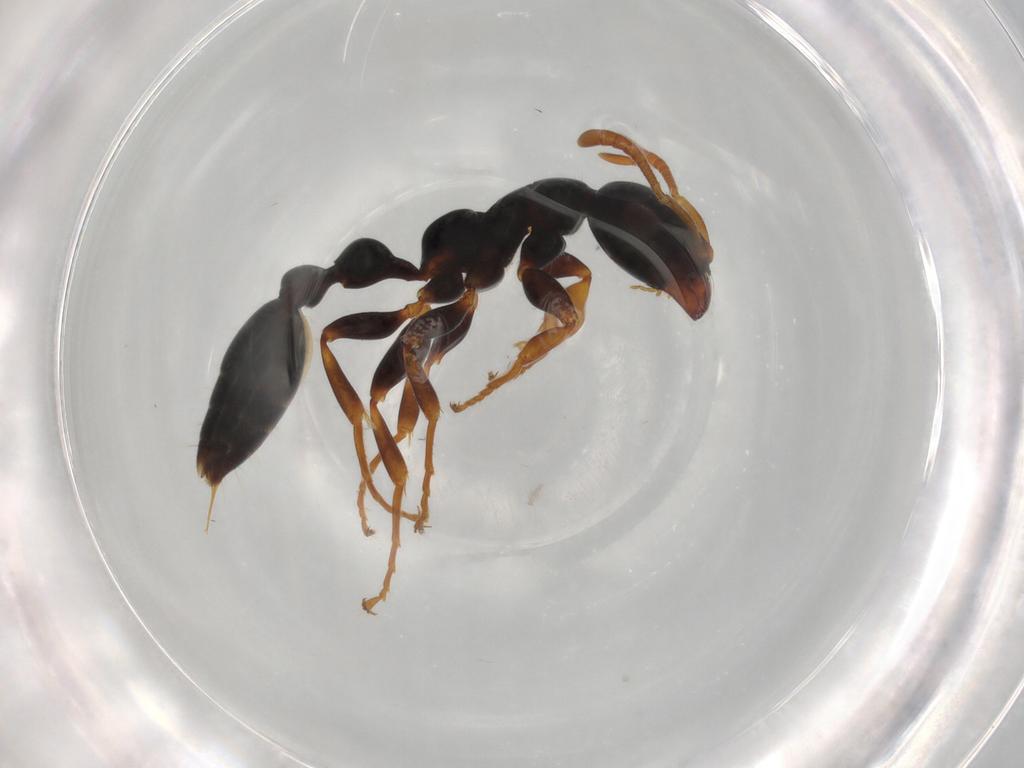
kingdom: Animalia
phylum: Arthropoda
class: Insecta
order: Hymenoptera
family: Formicidae
